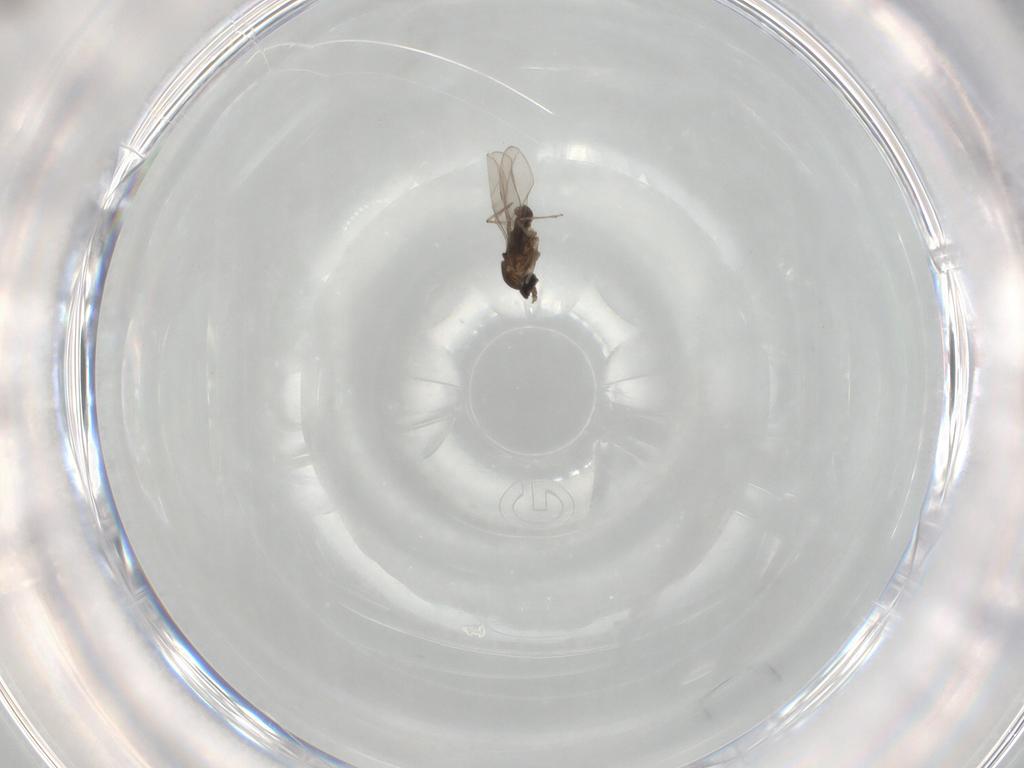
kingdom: Animalia
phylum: Arthropoda
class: Insecta
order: Diptera
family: Cecidomyiidae
